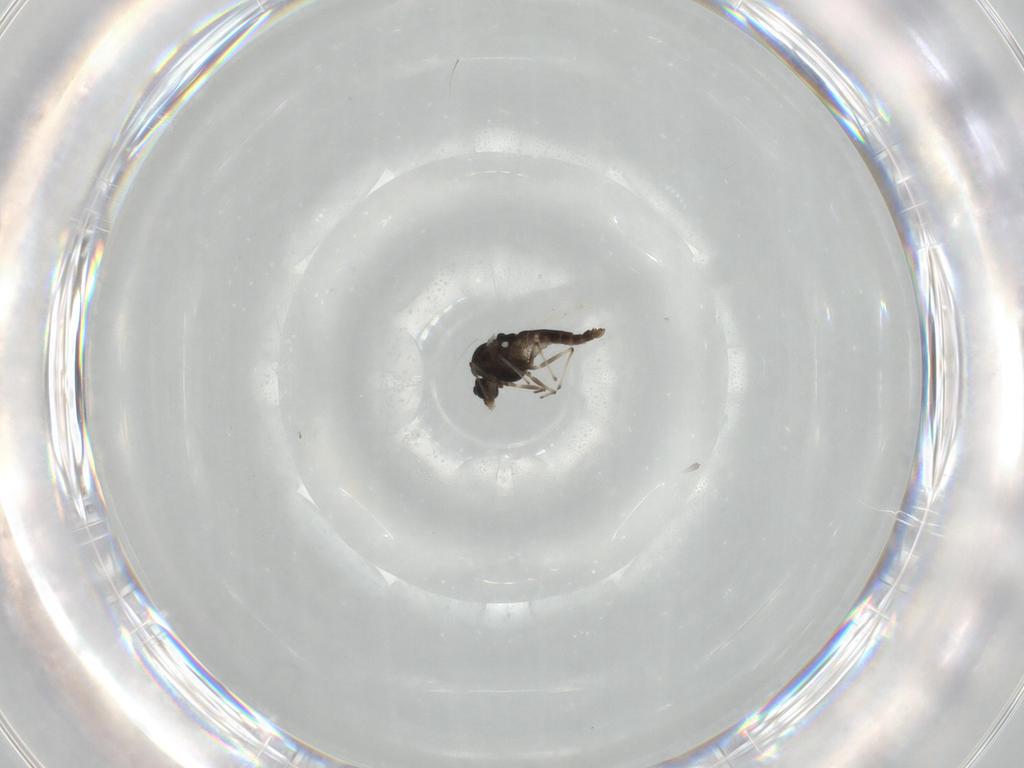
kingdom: Animalia
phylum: Arthropoda
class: Insecta
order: Diptera
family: Chironomidae
